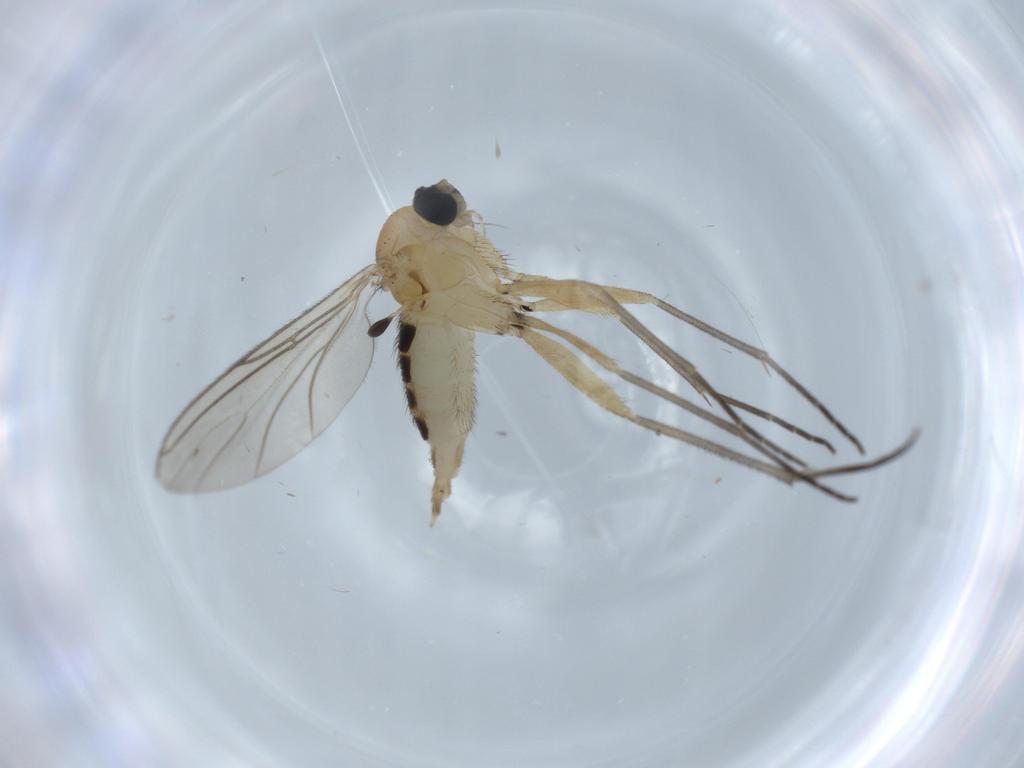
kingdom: Animalia
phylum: Arthropoda
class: Insecta
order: Diptera
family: Sciaridae
